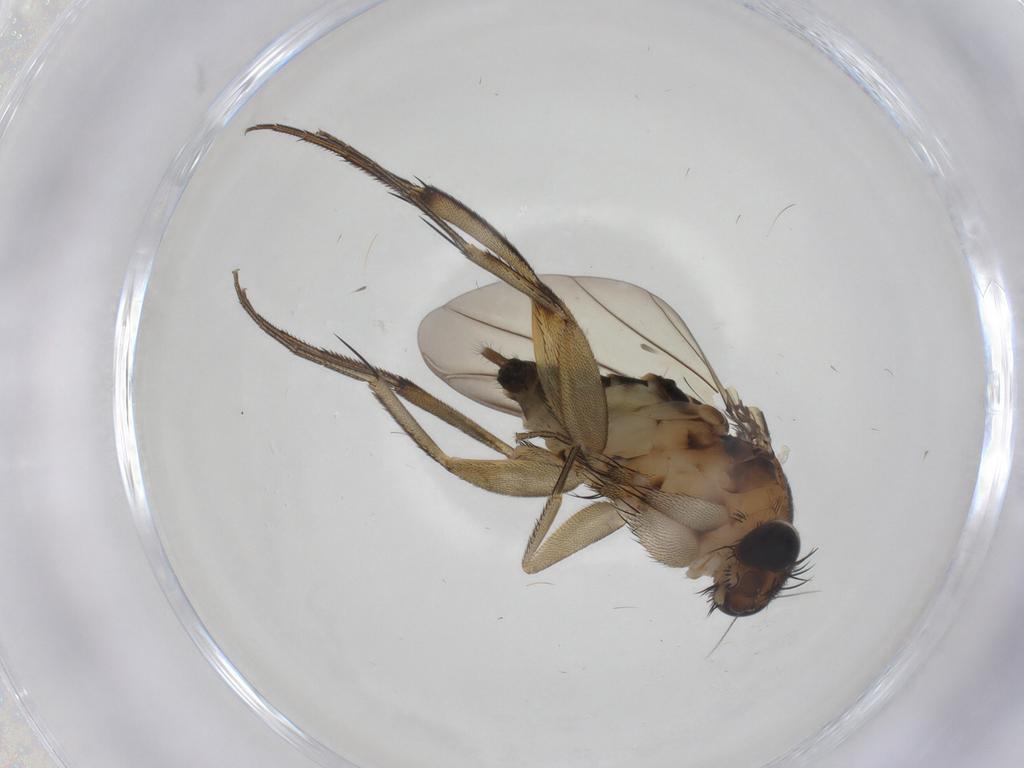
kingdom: Animalia
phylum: Arthropoda
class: Insecta
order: Diptera
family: Phoridae
